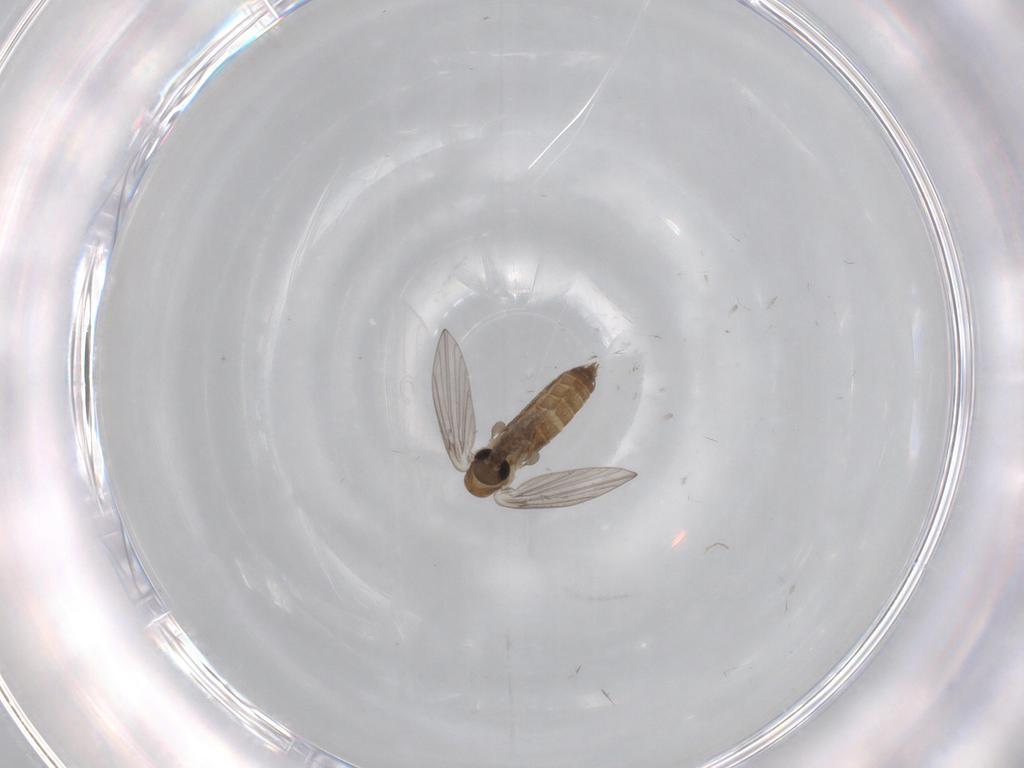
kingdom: Animalia
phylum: Arthropoda
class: Insecta
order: Diptera
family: Psychodidae
